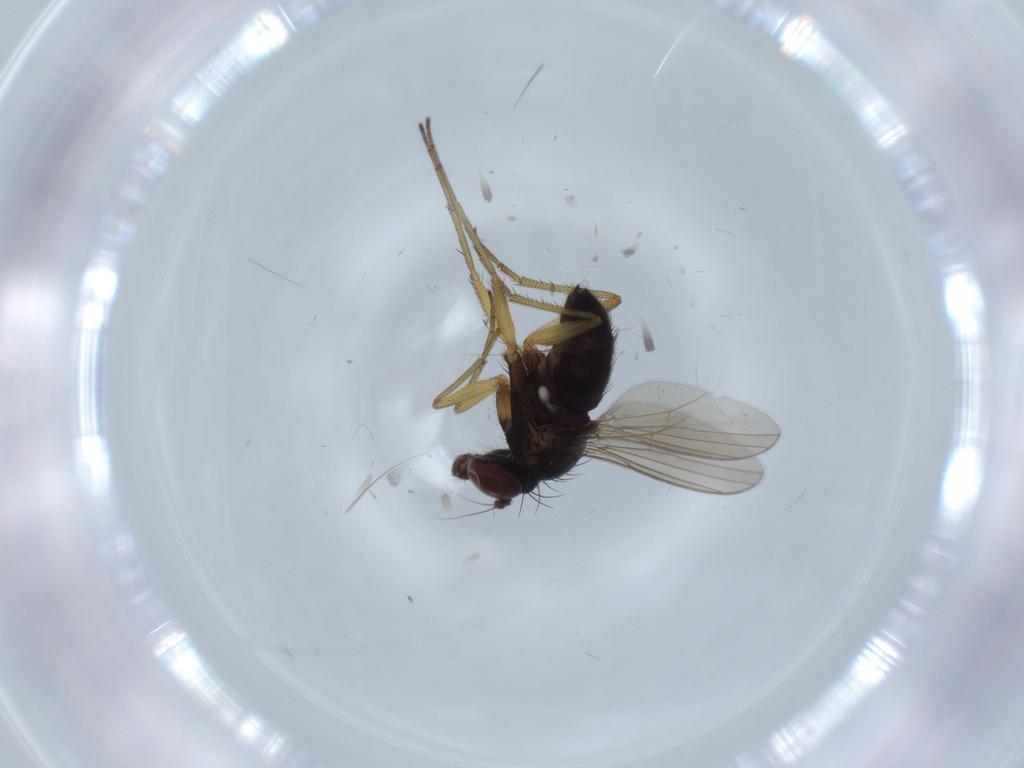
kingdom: Animalia
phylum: Arthropoda
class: Insecta
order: Diptera
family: Dolichopodidae
